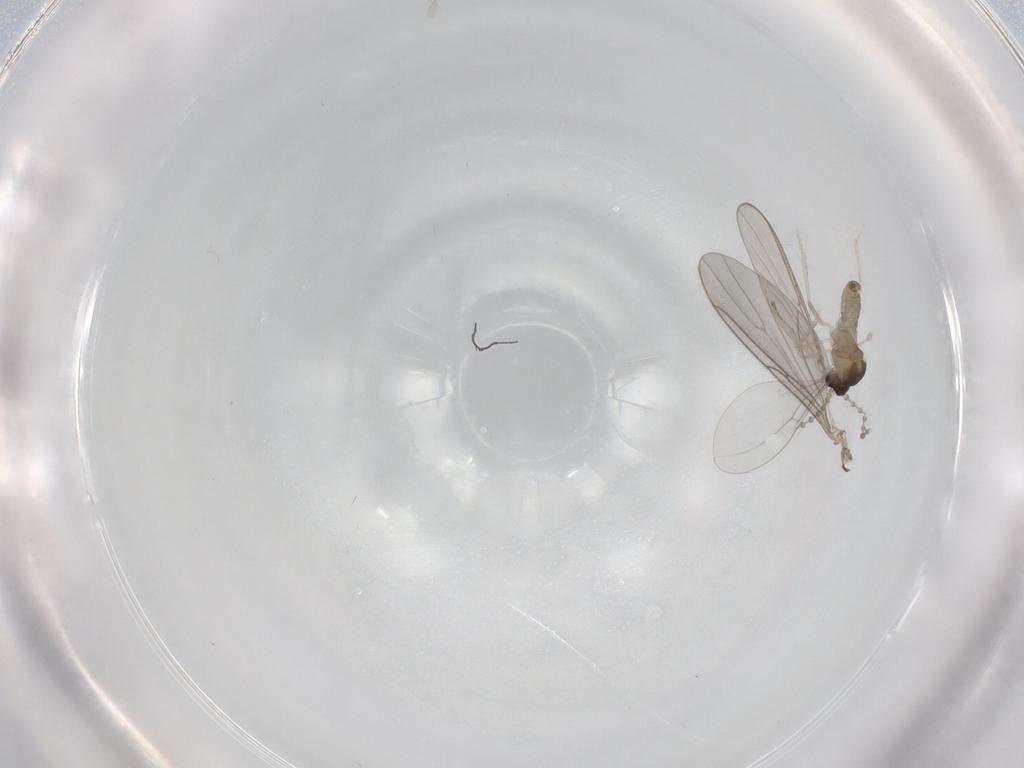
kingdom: Animalia
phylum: Arthropoda
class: Insecta
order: Diptera
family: Cecidomyiidae
